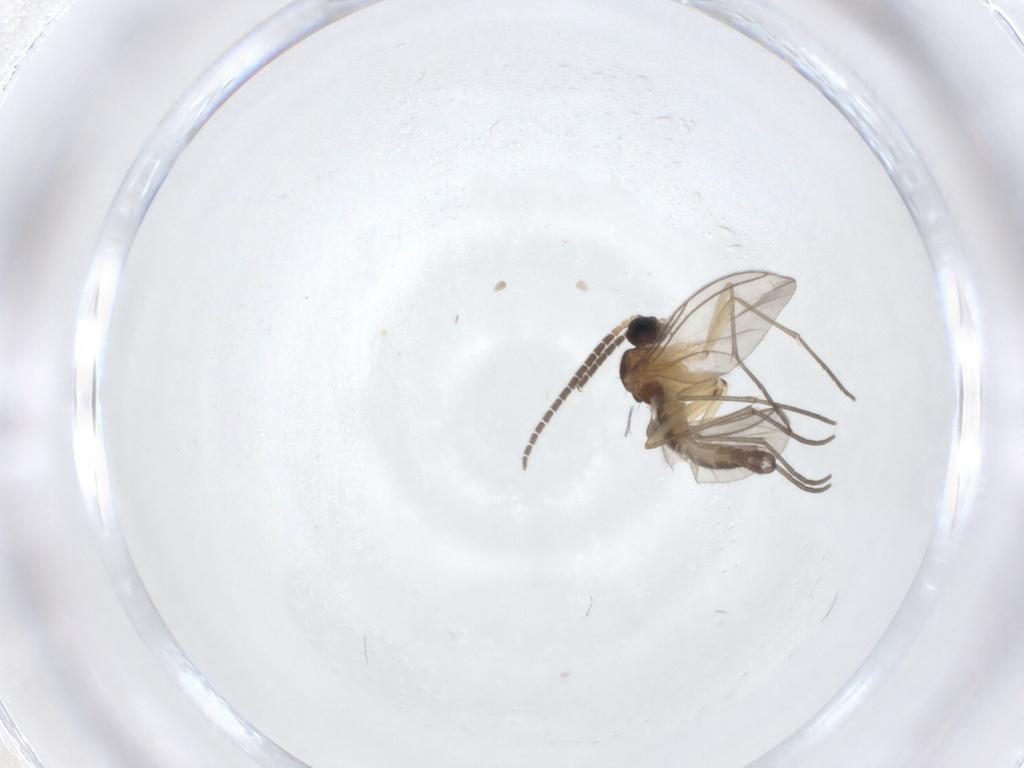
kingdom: Animalia
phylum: Arthropoda
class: Insecta
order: Diptera
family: Sciaridae
